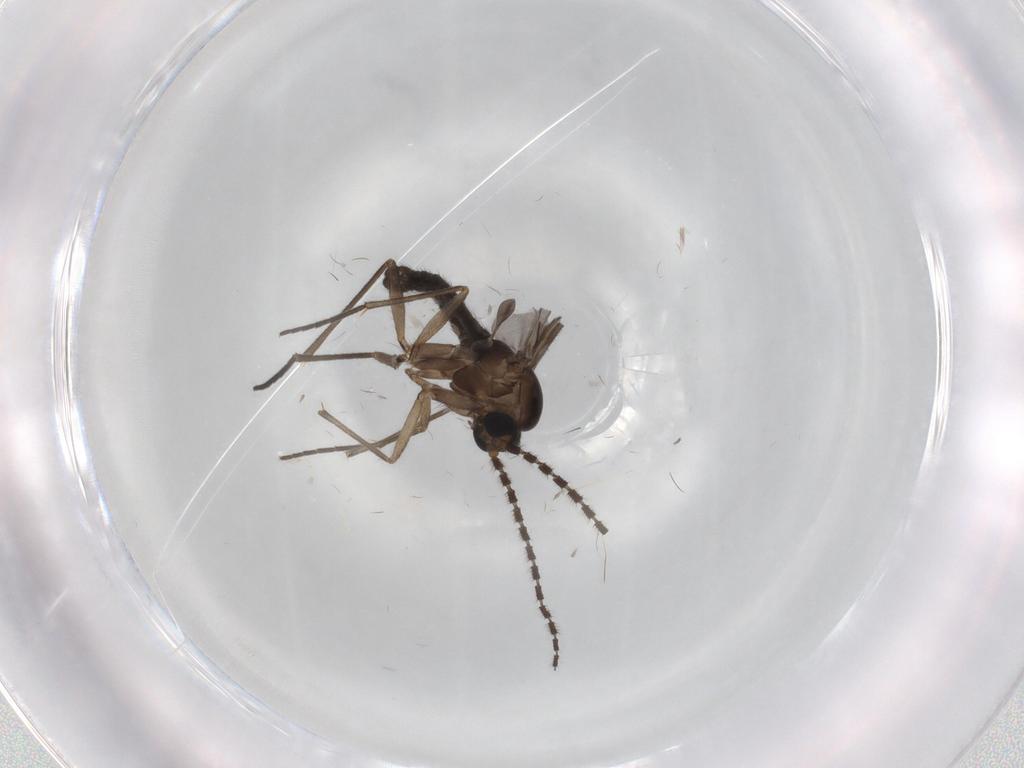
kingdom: Animalia
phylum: Arthropoda
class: Insecta
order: Diptera
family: Sciaridae
